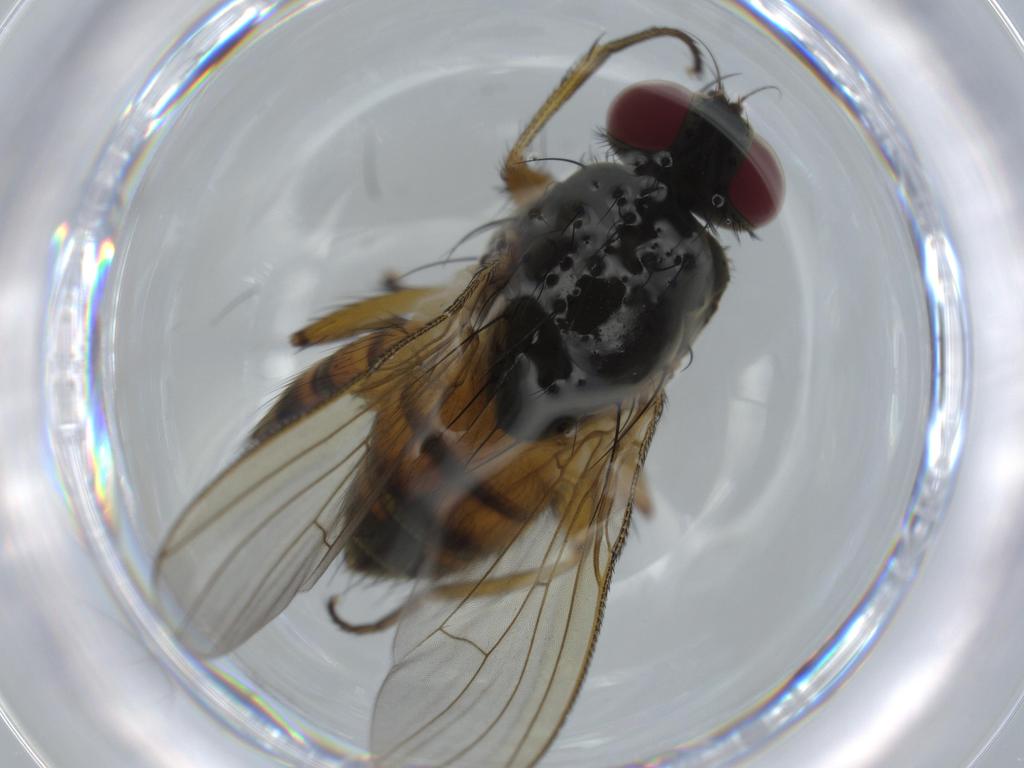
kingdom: Animalia
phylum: Arthropoda
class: Insecta
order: Diptera
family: Muscidae
